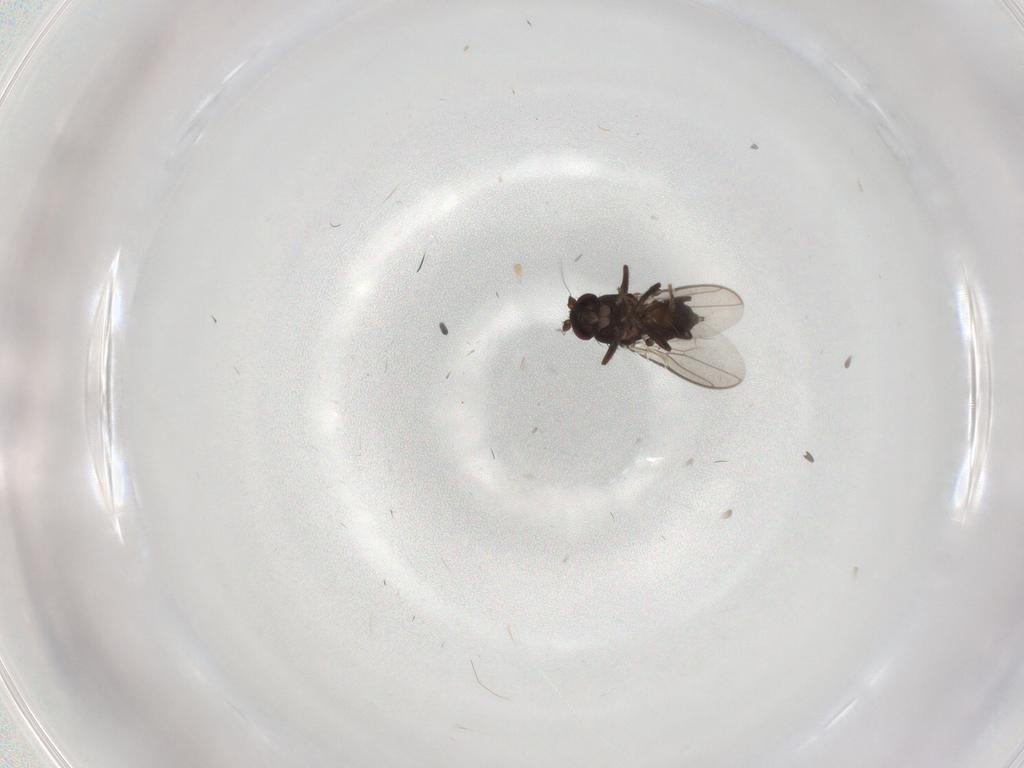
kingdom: Animalia
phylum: Arthropoda
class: Insecta
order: Diptera
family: Sphaeroceridae
